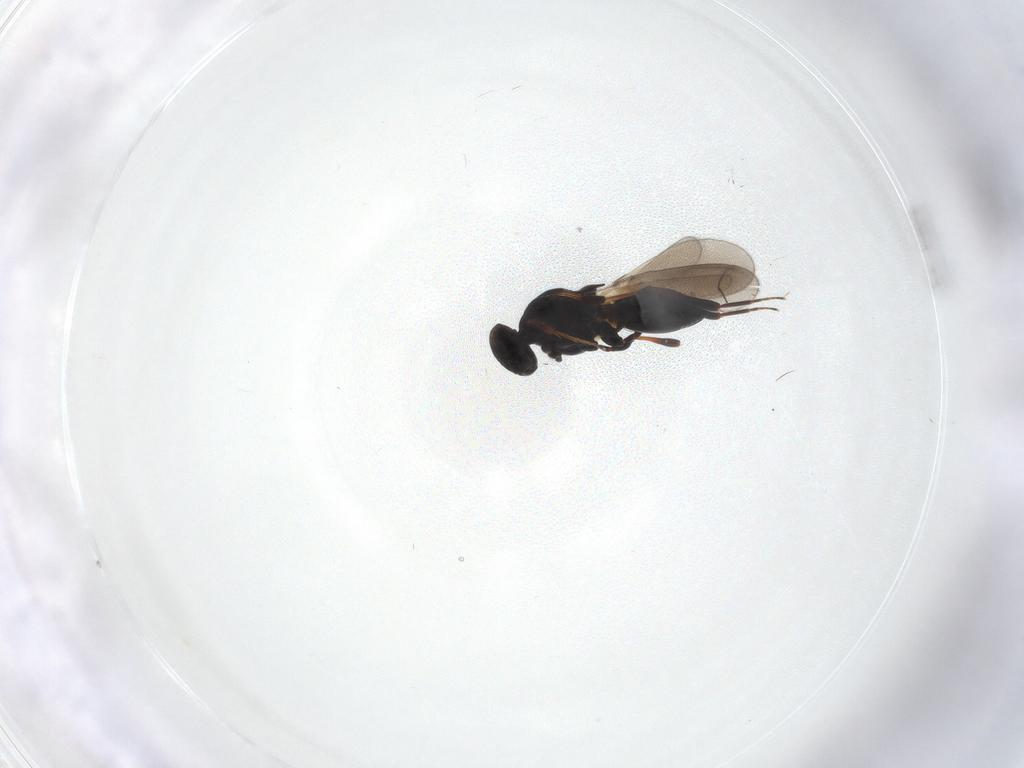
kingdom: Animalia
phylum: Arthropoda
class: Insecta
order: Hymenoptera
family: Platygastridae
